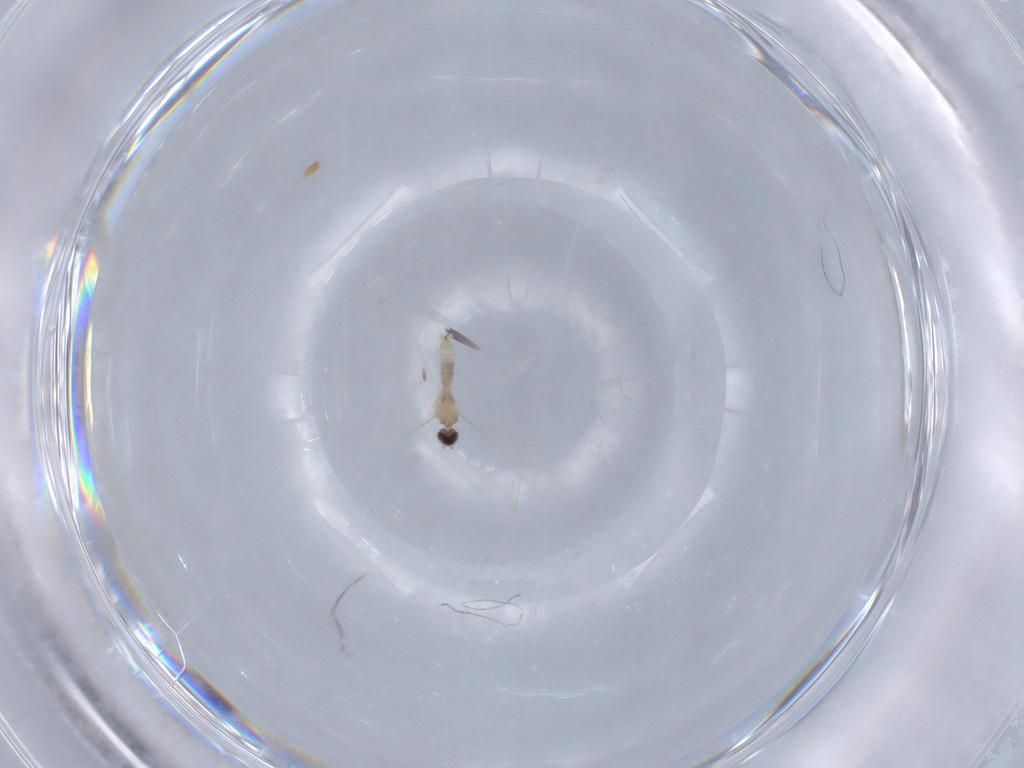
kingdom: Animalia
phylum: Arthropoda
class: Insecta
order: Diptera
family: Cecidomyiidae
